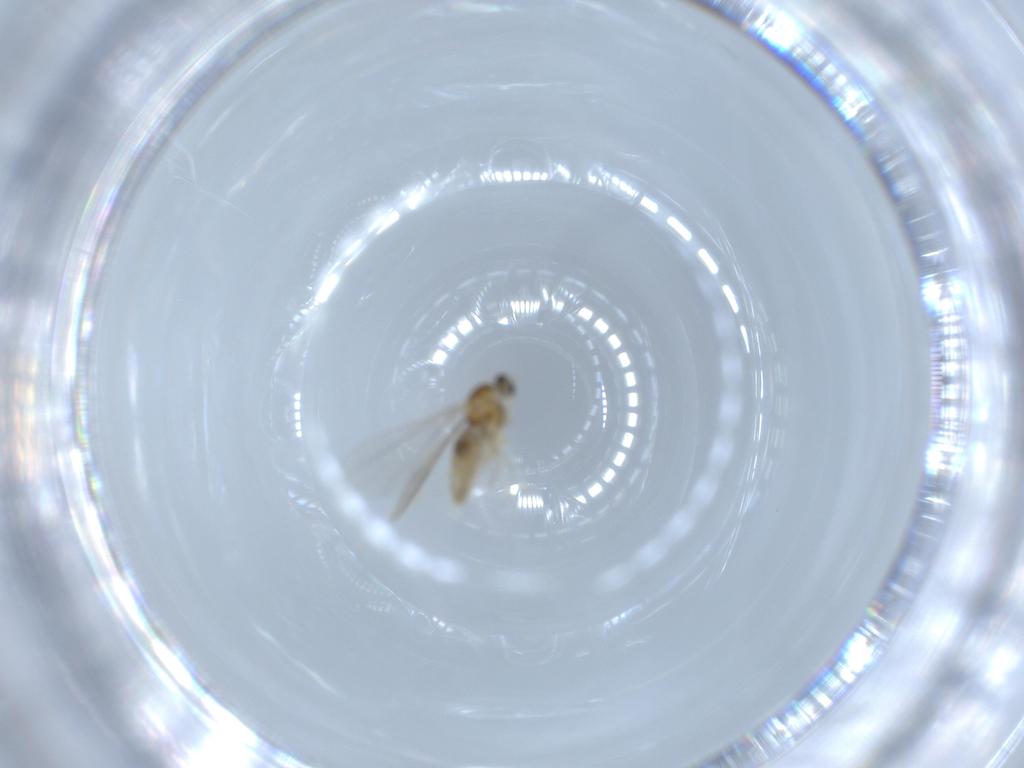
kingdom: Animalia
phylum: Arthropoda
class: Insecta
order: Diptera
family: Cecidomyiidae
